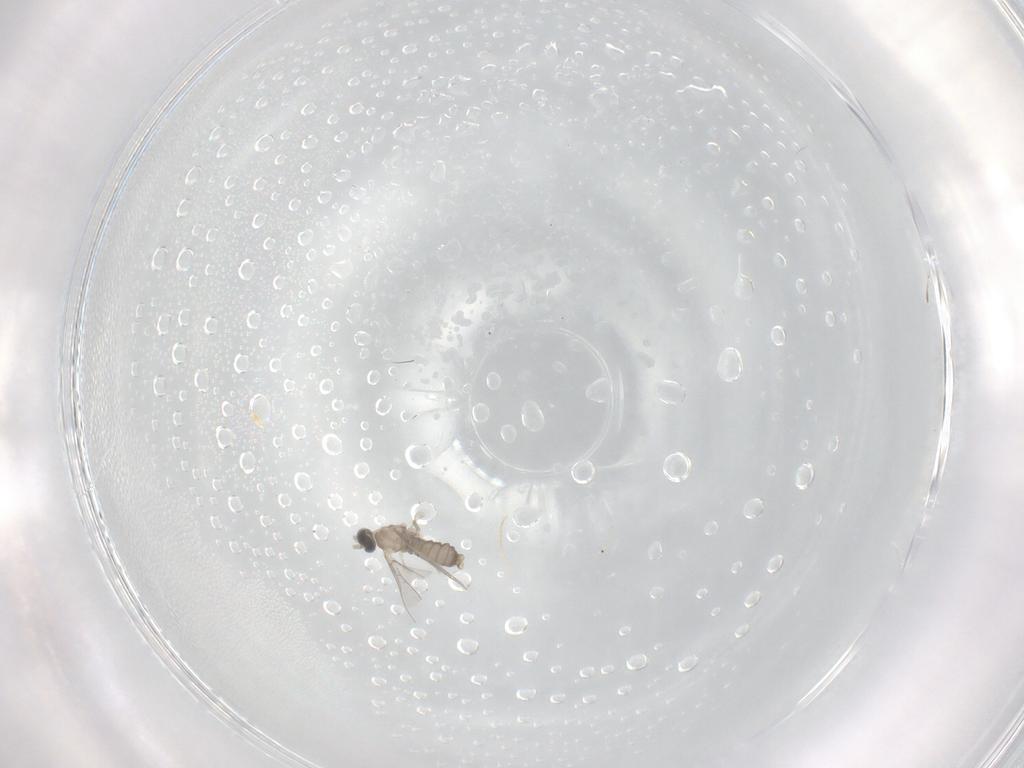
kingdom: Animalia
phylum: Arthropoda
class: Insecta
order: Diptera
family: Cecidomyiidae
